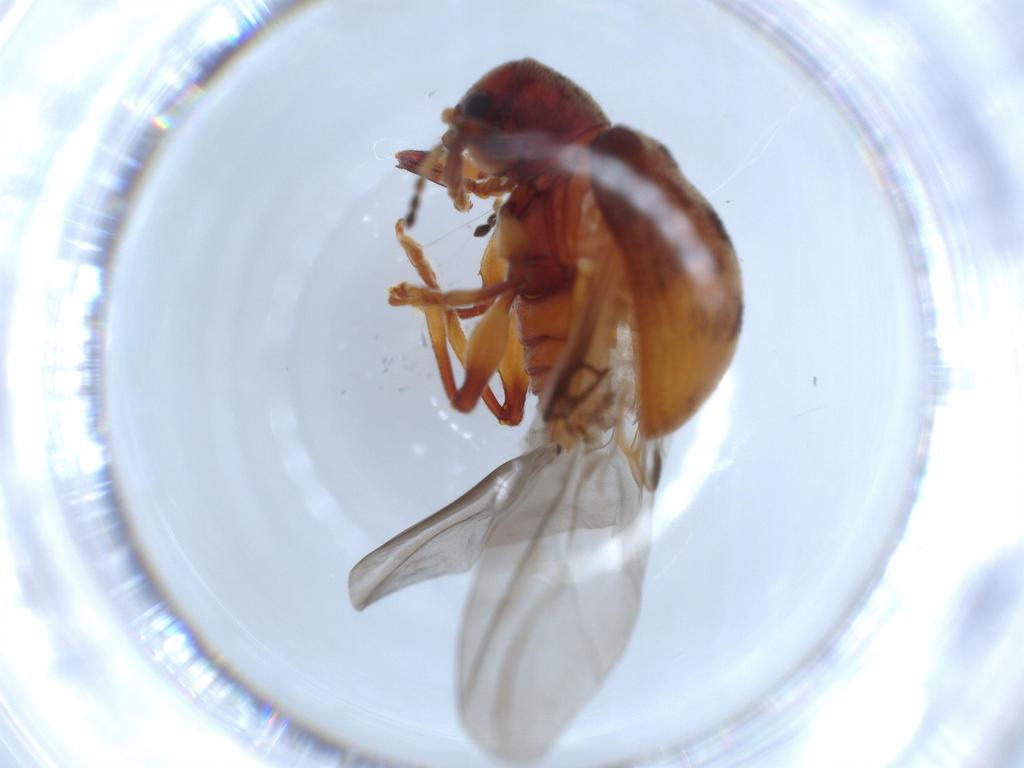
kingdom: Animalia
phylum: Arthropoda
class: Insecta
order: Coleoptera
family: Chrysomelidae
